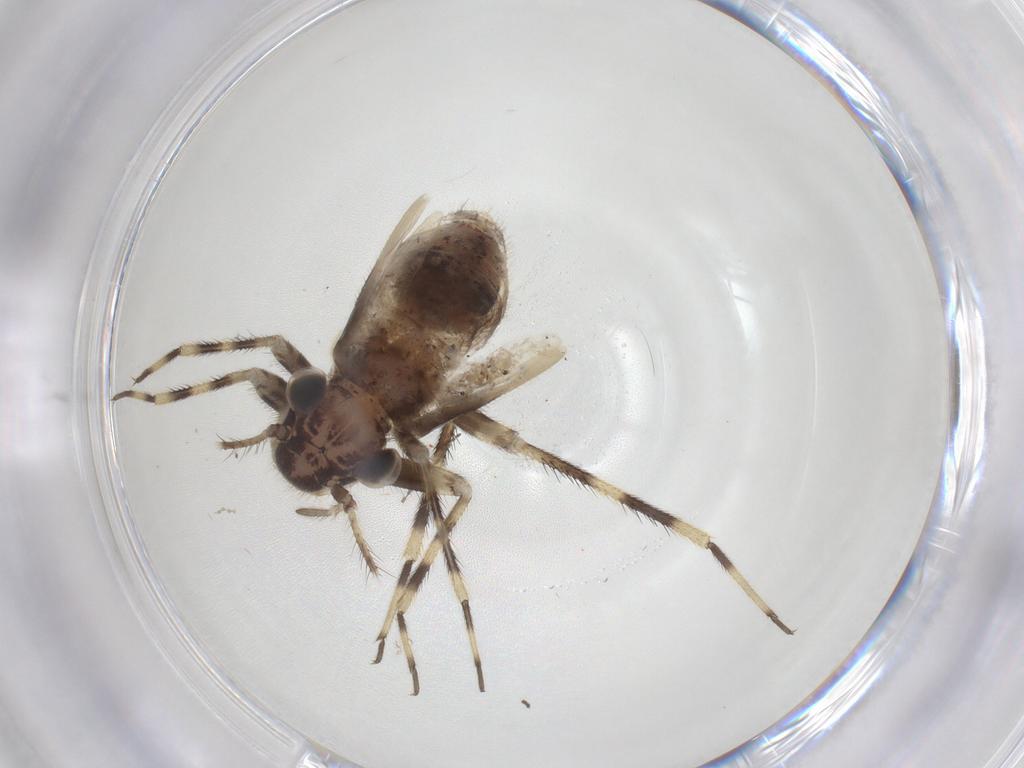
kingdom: Animalia
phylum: Arthropoda
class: Insecta
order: Psocodea
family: Ptiloneuridae
